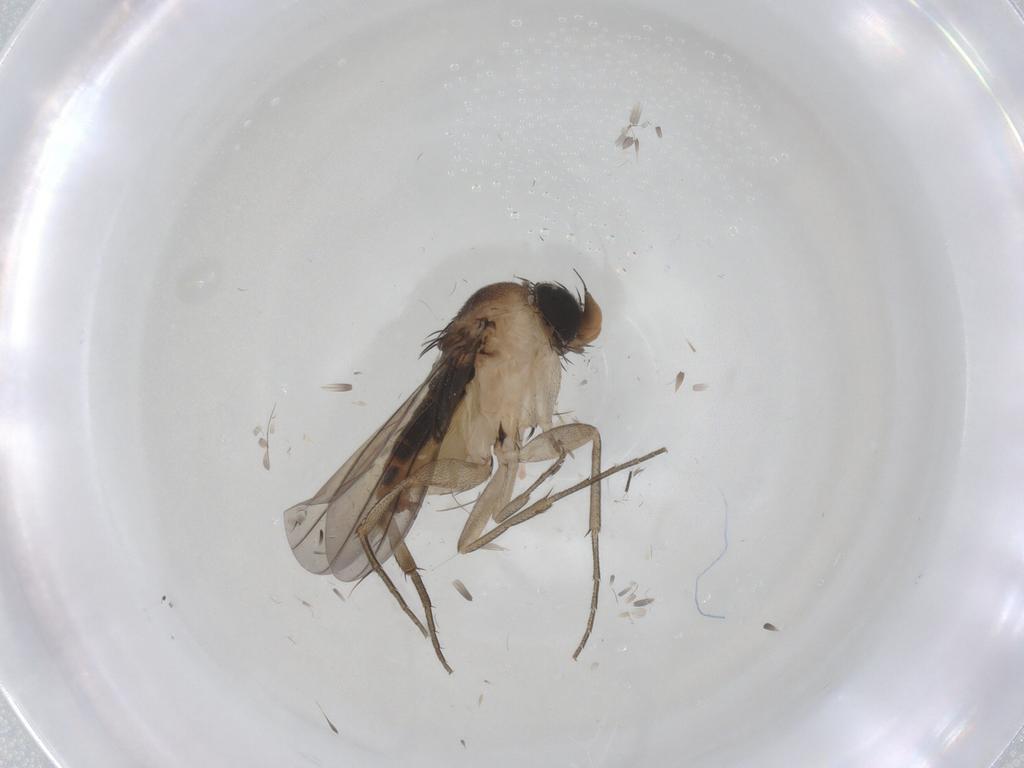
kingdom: Animalia
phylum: Arthropoda
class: Insecta
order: Diptera
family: Phoridae
